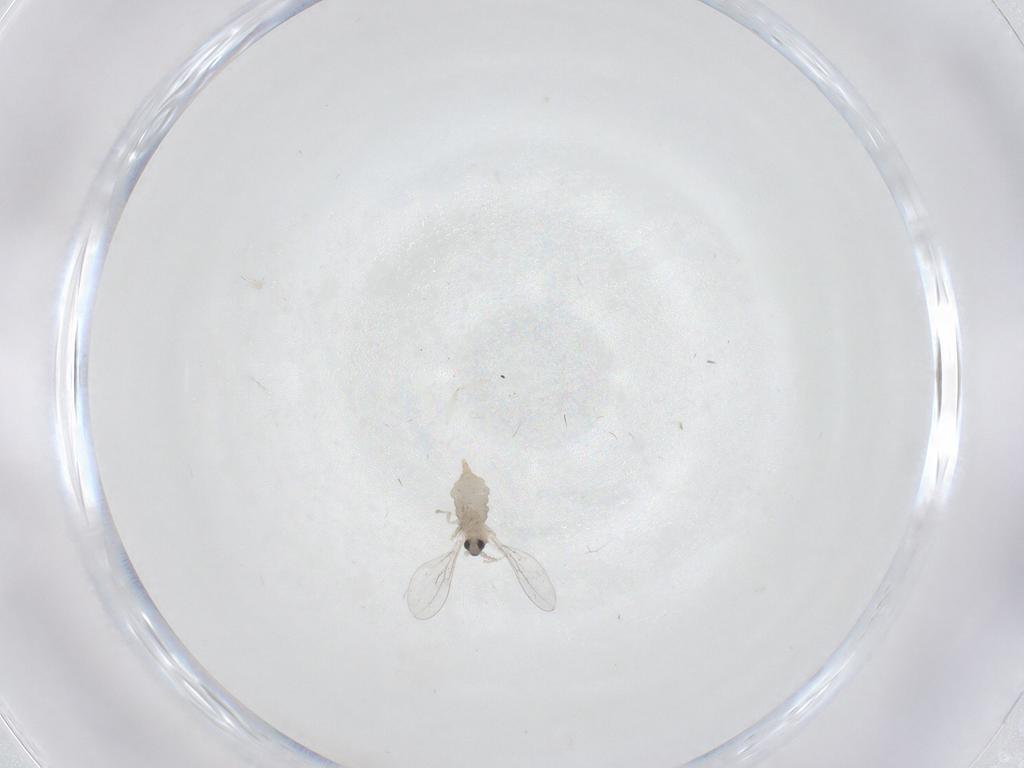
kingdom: Animalia
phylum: Arthropoda
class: Insecta
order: Diptera
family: Cecidomyiidae
